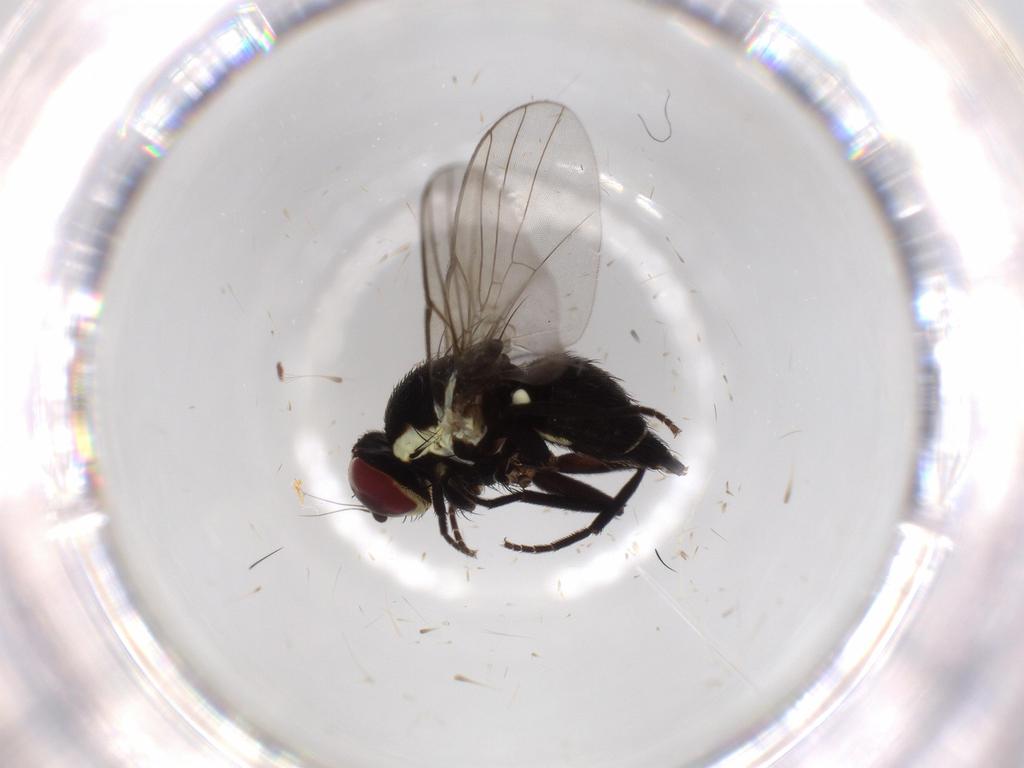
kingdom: Animalia
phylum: Arthropoda
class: Insecta
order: Diptera
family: Agromyzidae
